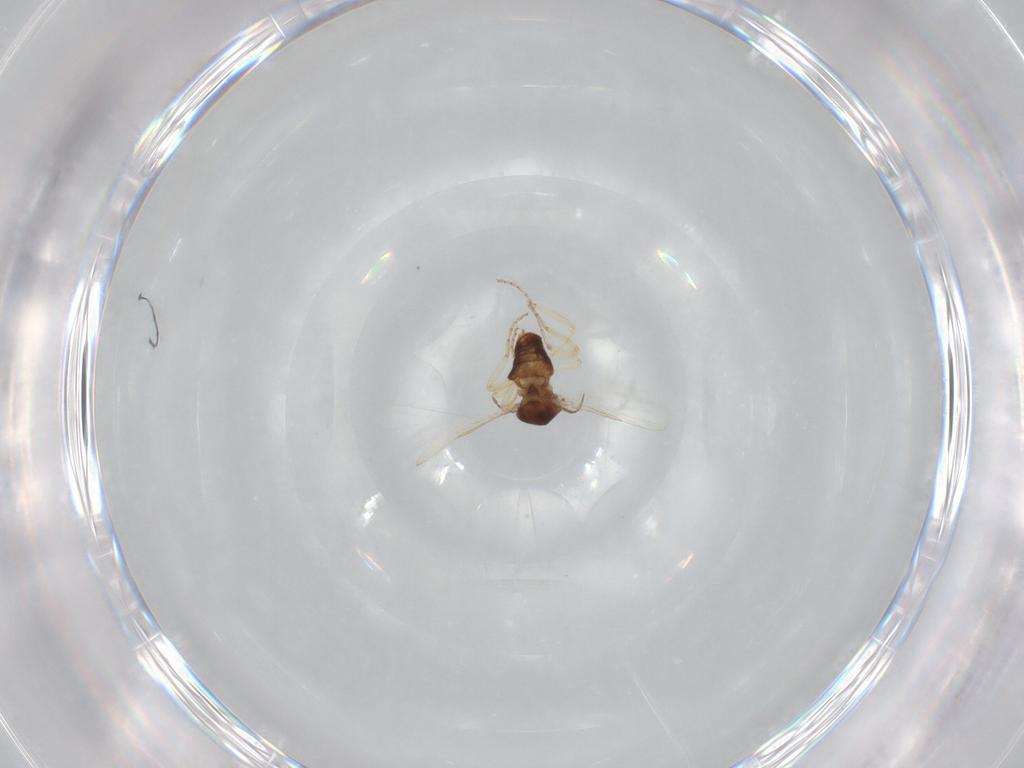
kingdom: Animalia
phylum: Arthropoda
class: Insecta
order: Diptera
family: Ceratopogonidae
